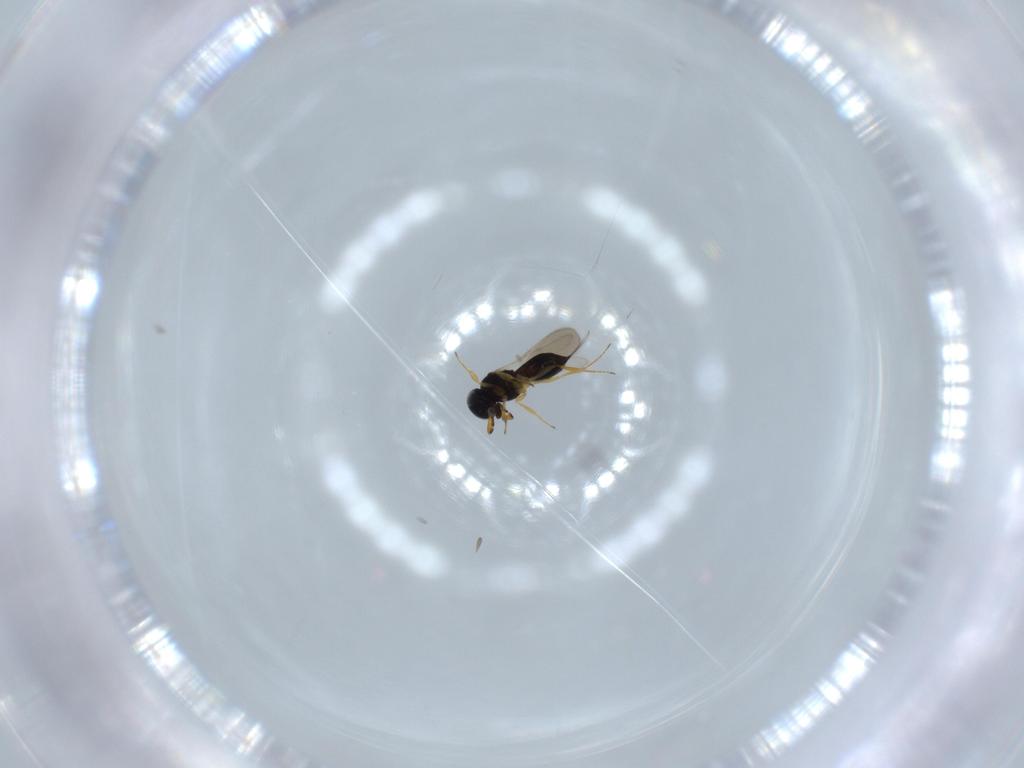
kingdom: Animalia
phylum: Arthropoda
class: Insecta
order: Hymenoptera
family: Scelionidae
